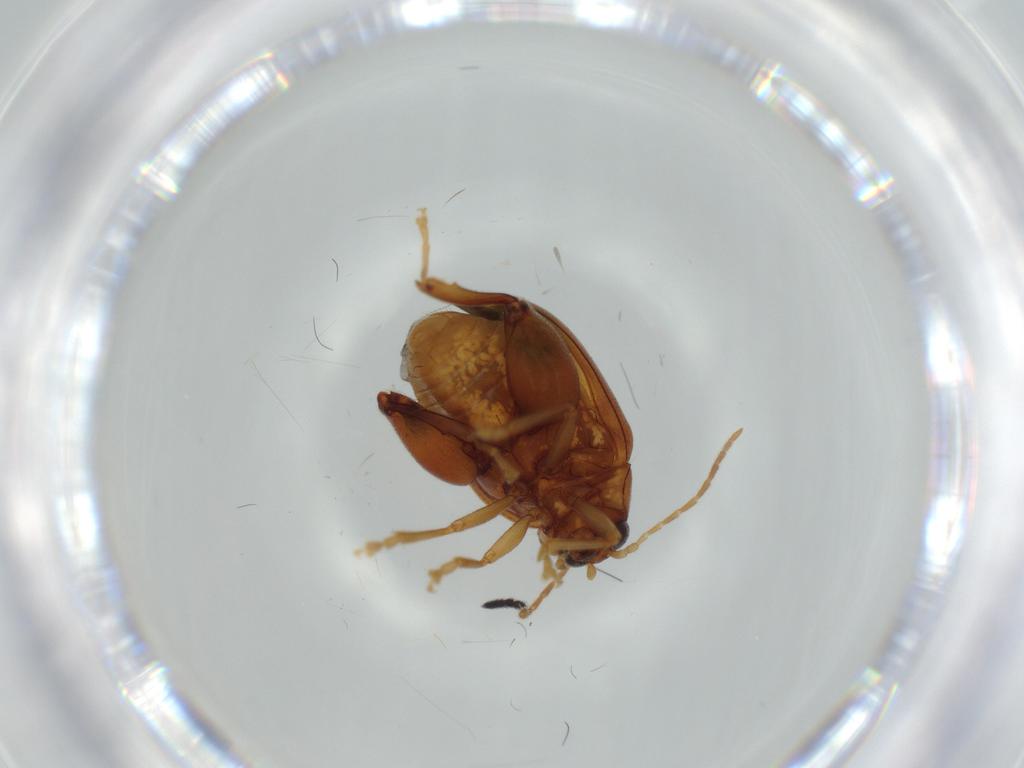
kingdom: Animalia
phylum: Arthropoda
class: Insecta
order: Coleoptera
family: Chrysomelidae
